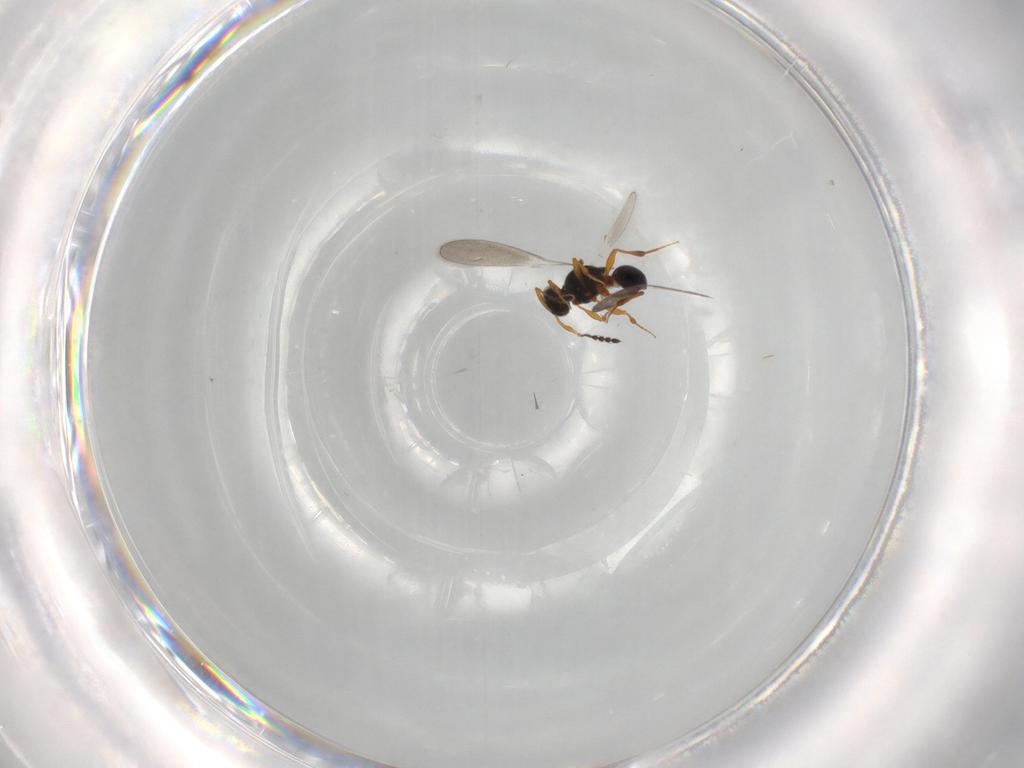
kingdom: Animalia
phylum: Arthropoda
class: Insecta
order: Hymenoptera
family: Platygastridae
